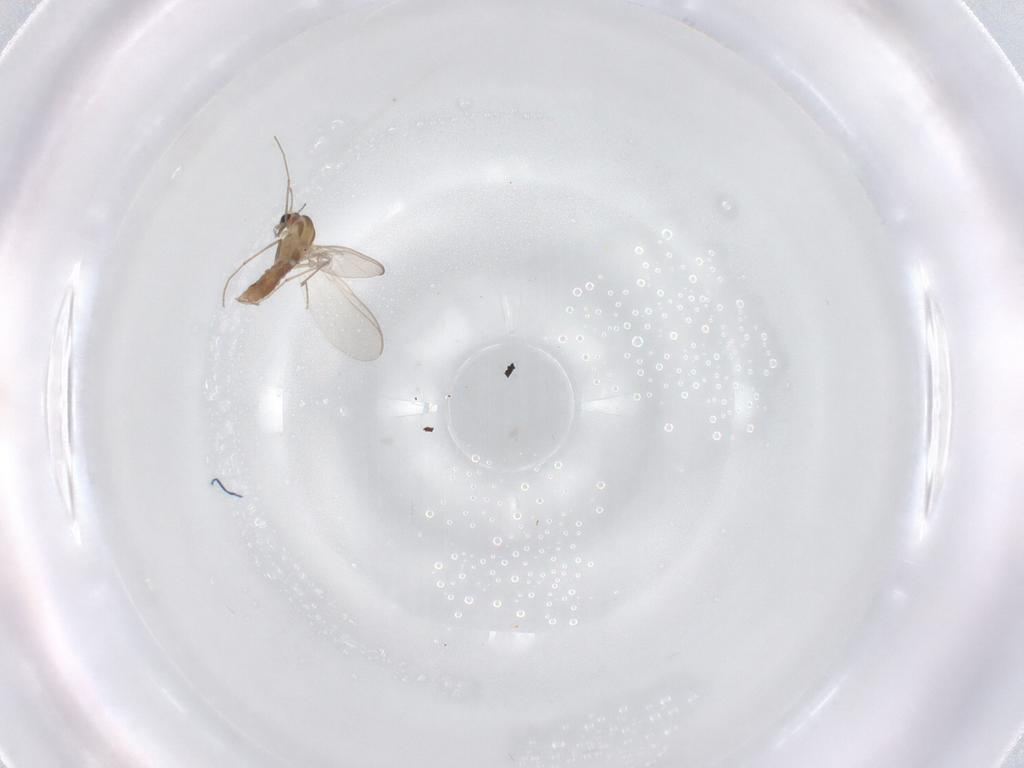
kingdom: Animalia
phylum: Arthropoda
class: Insecta
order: Diptera
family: Chironomidae
